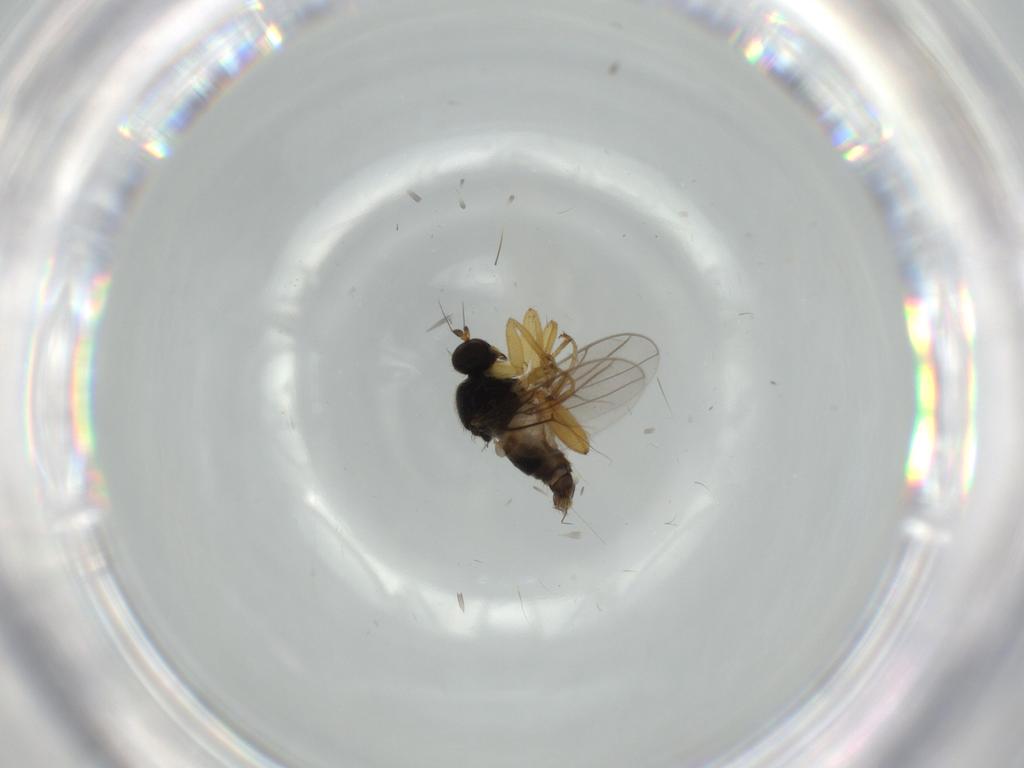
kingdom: Animalia
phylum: Arthropoda
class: Insecta
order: Diptera
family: Hybotidae
